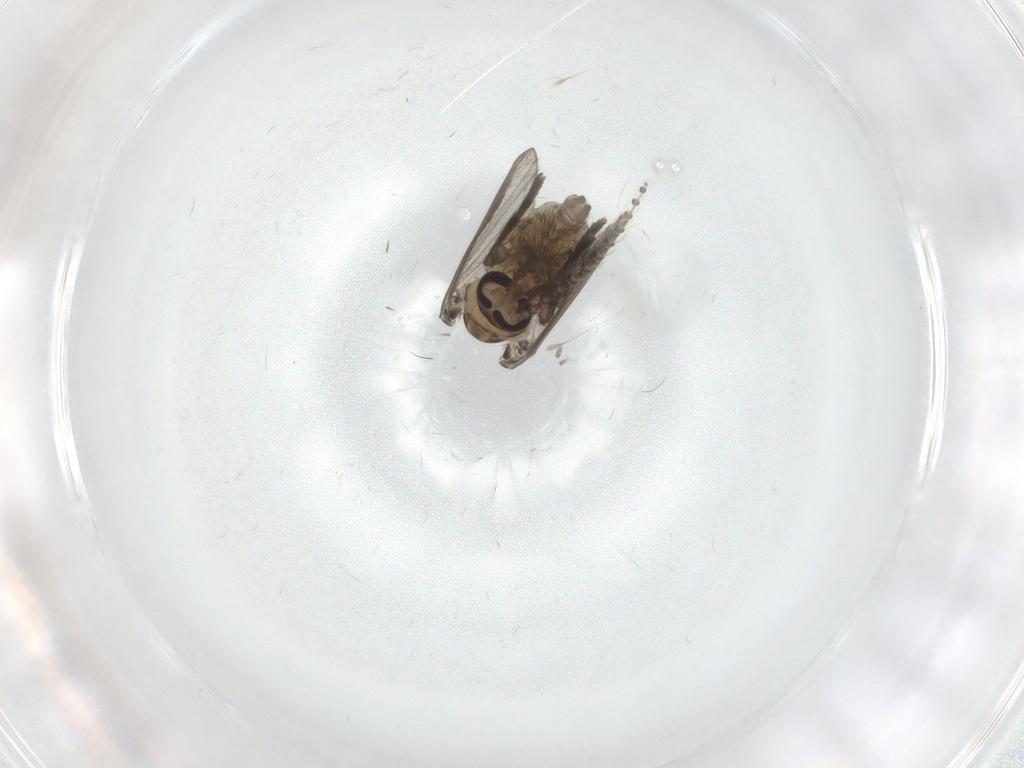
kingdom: Animalia
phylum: Arthropoda
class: Insecta
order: Diptera
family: Psychodidae
